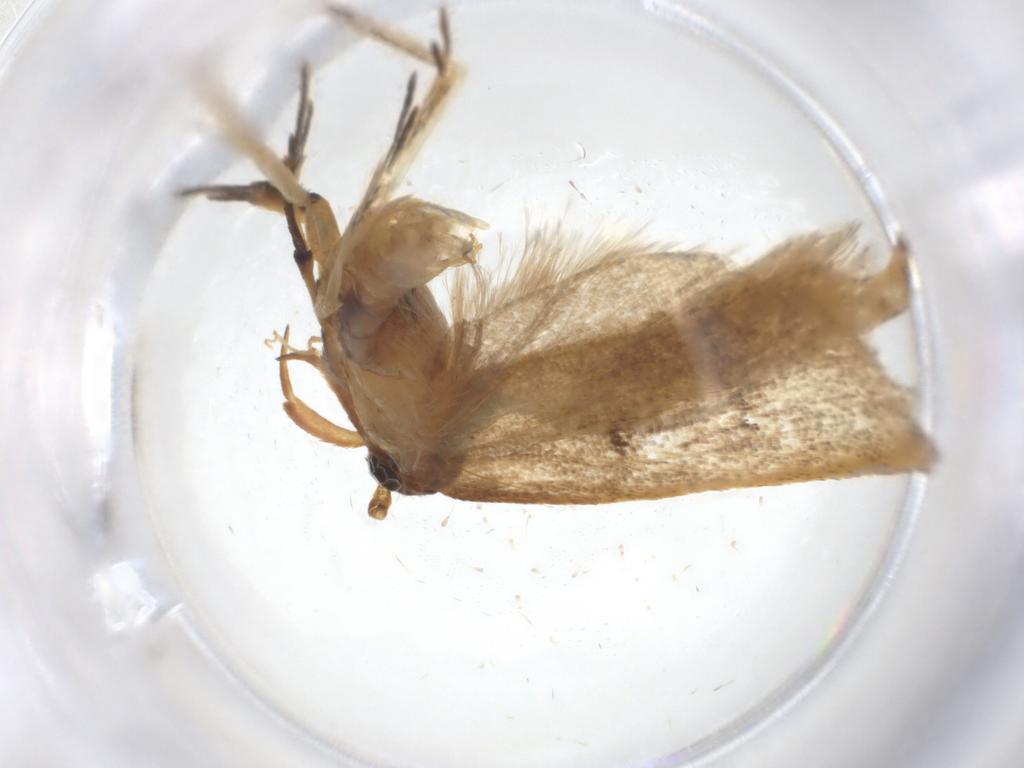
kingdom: Animalia
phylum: Arthropoda
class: Insecta
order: Lepidoptera
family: Lecithoceridae
